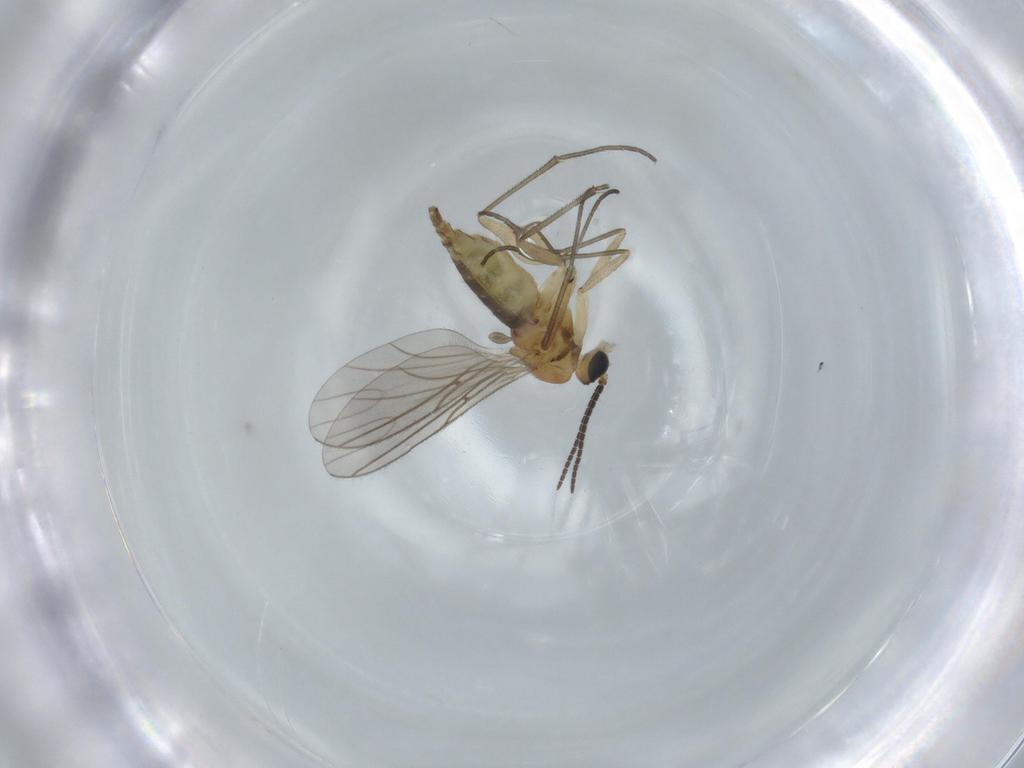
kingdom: Animalia
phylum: Arthropoda
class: Insecta
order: Diptera
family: Sciaridae
